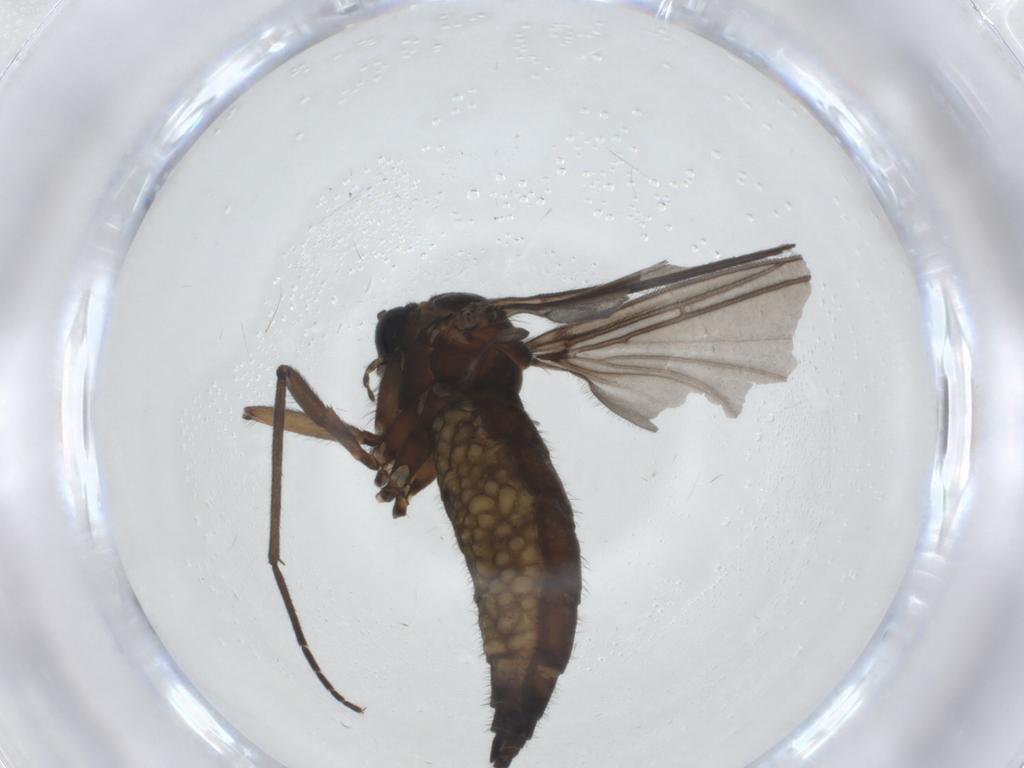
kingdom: Animalia
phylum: Arthropoda
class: Insecta
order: Diptera
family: Sciaridae
